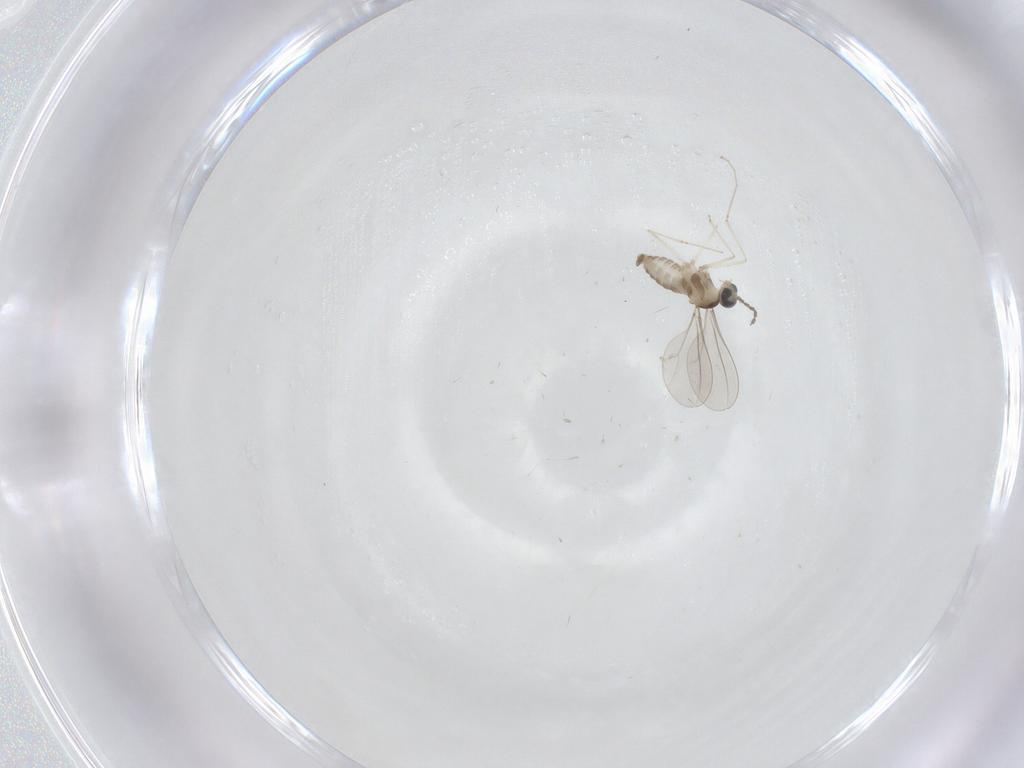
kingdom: Animalia
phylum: Arthropoda
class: Insecta
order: Diptera
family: Cecidomyiidae
